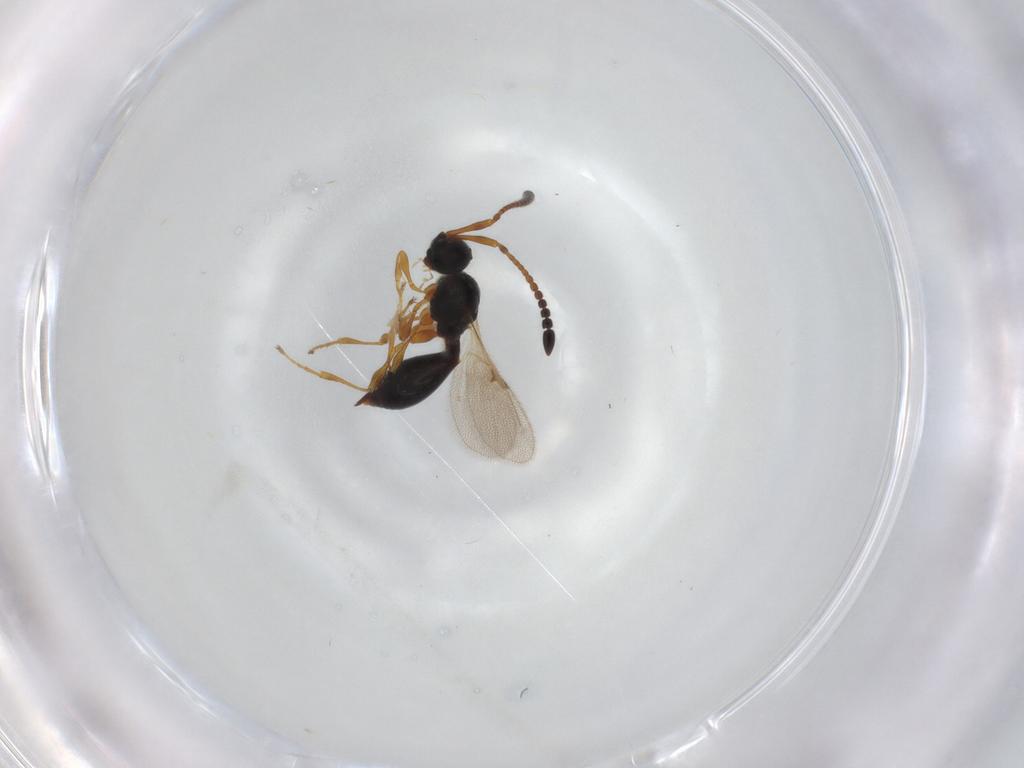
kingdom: Animalia
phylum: Arthropoda
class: Insecta
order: Hymenoptera
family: Diapriidae
